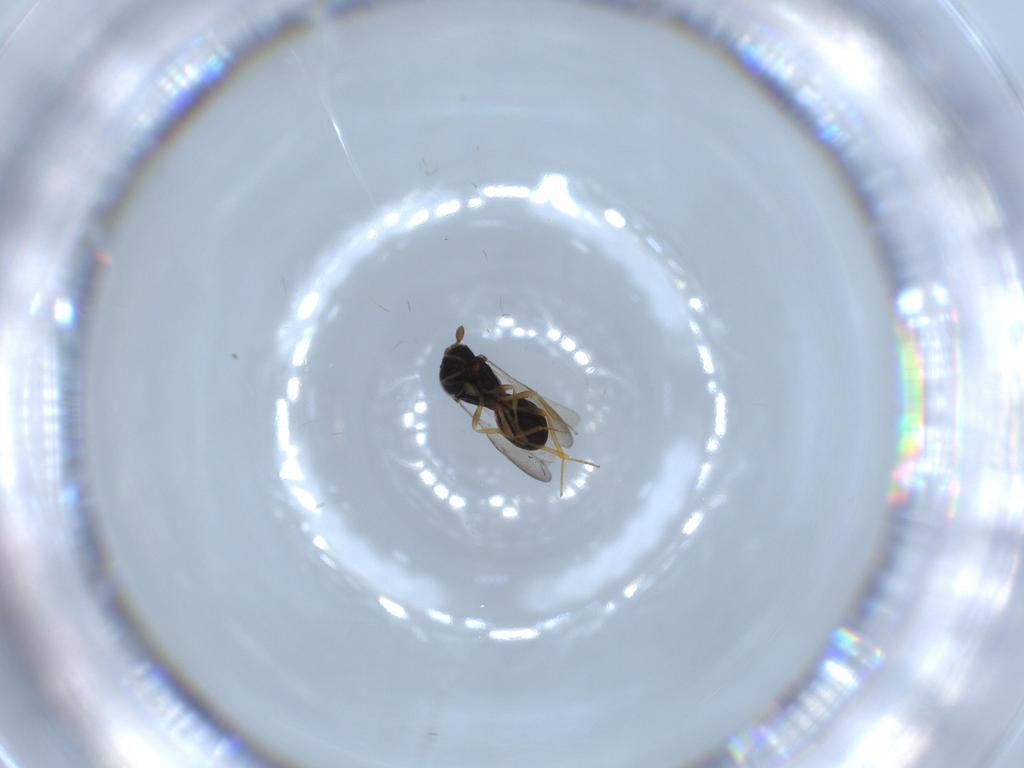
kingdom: Animalia
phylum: Arthropoda
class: Insecta
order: Hymenoptera
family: Scelionidae
